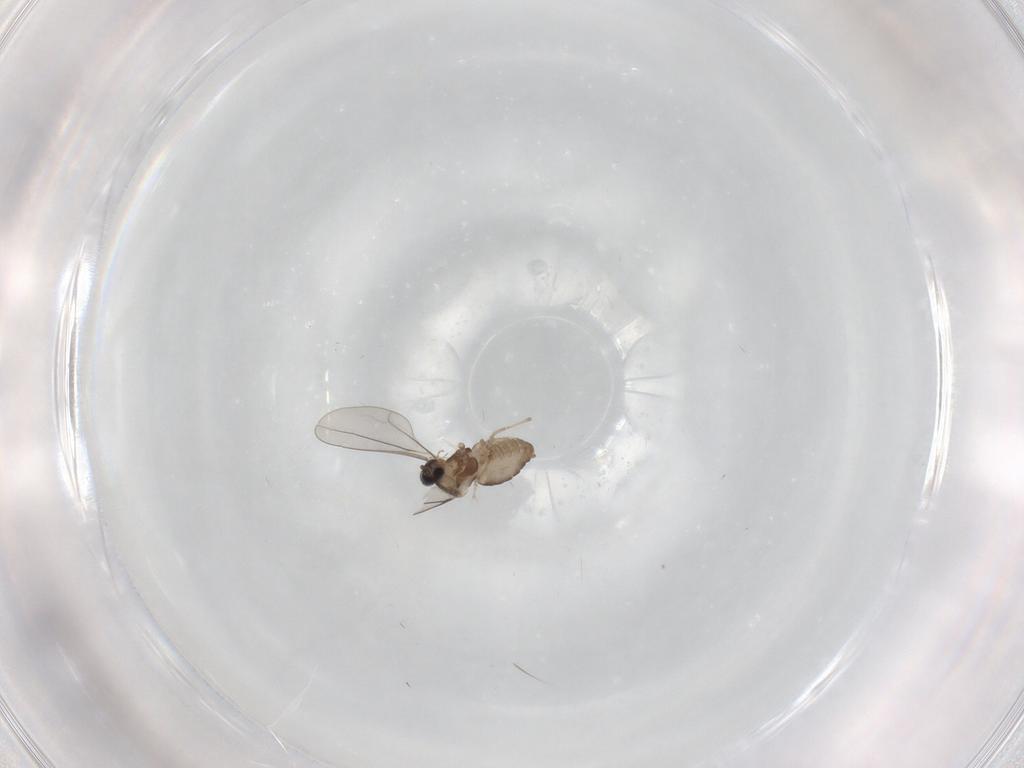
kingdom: Animalia
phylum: Arthropoda
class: Insecta
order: Diptera
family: Cecidomyiidae
